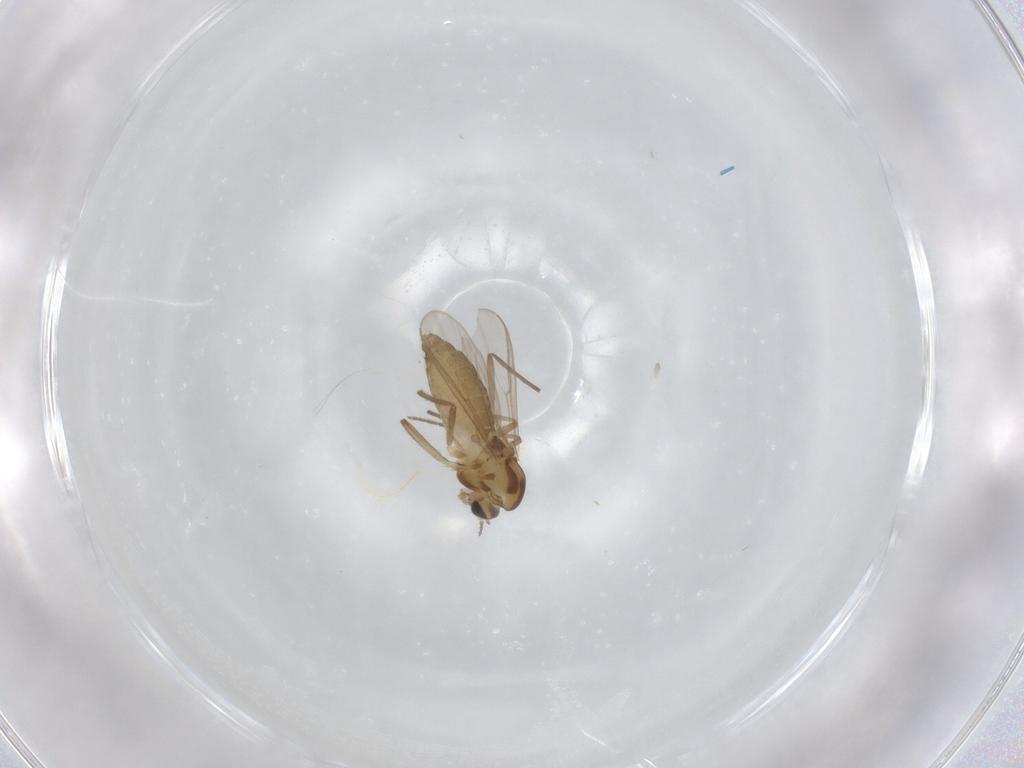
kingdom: Animalia
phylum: Arthropoda
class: Insecta
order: Diptera
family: Chironomidae
